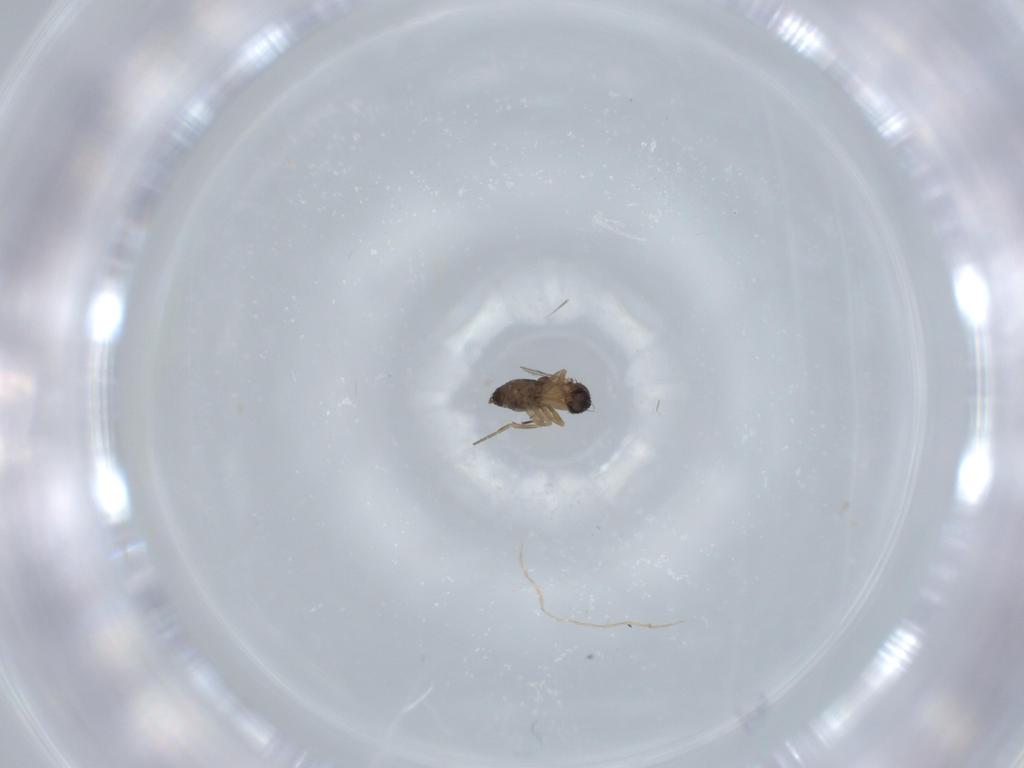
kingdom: Animalia
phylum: Arthropoda
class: Insecta
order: Diptera
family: Phoridae
